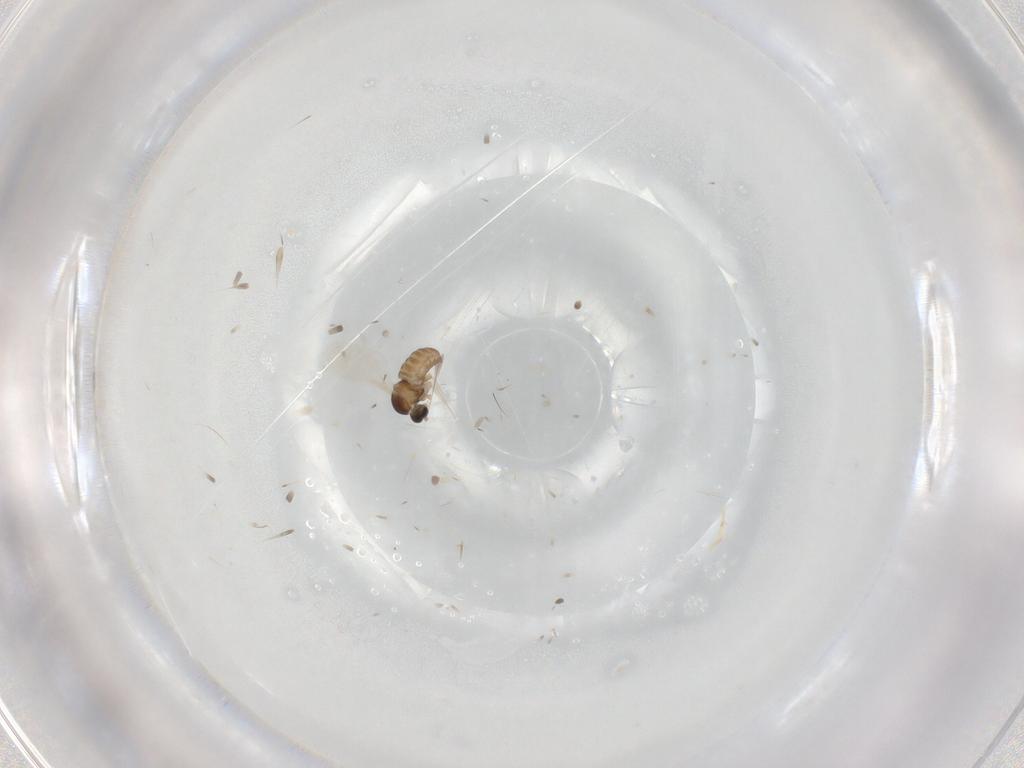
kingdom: Animalia
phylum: Arthropoda
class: Insecta
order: Diptera
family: Cecidomyiidae
